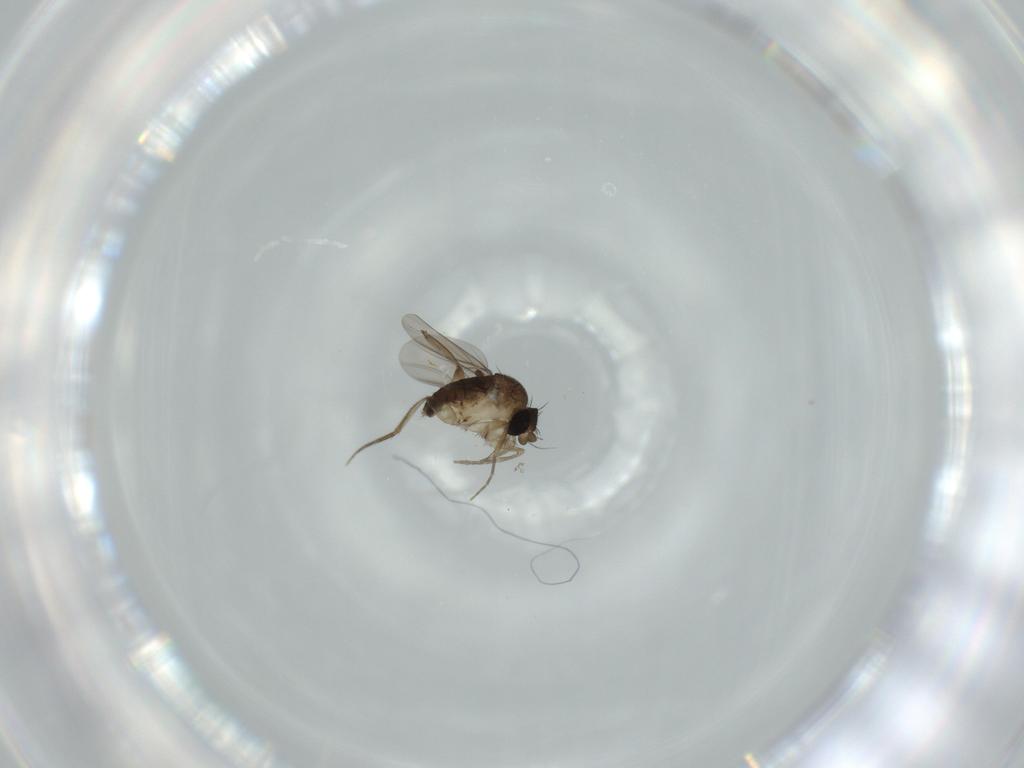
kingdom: Animalia
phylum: Arthropoda
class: Insecta
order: Diptera
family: Phoridae
